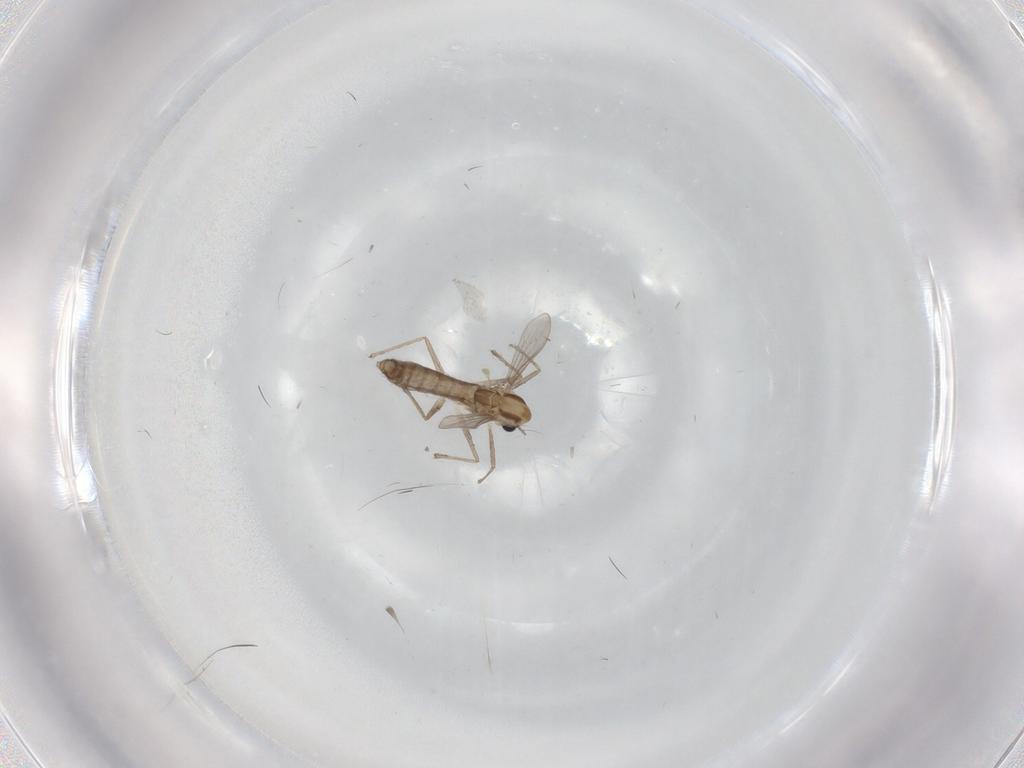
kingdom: Animalia
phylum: Arthropoda
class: Insecta
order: Diptera
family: Chironomidae
